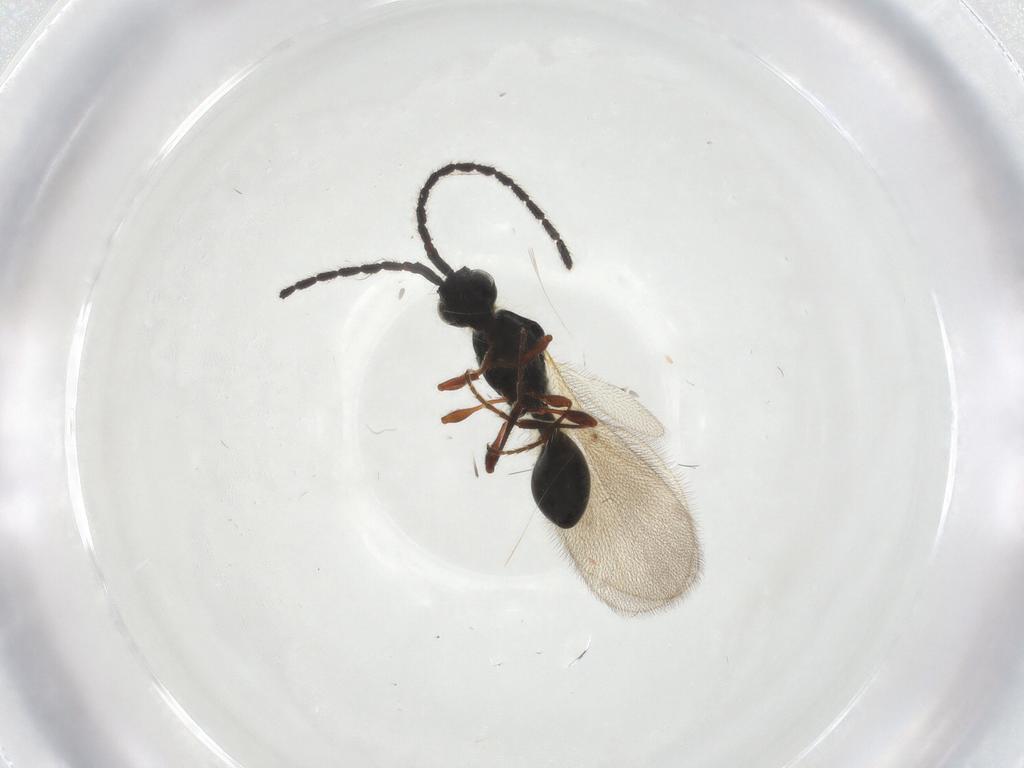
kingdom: Animalia
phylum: Arthropoda
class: Insecta
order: Hymenoptera
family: Diapriidae
